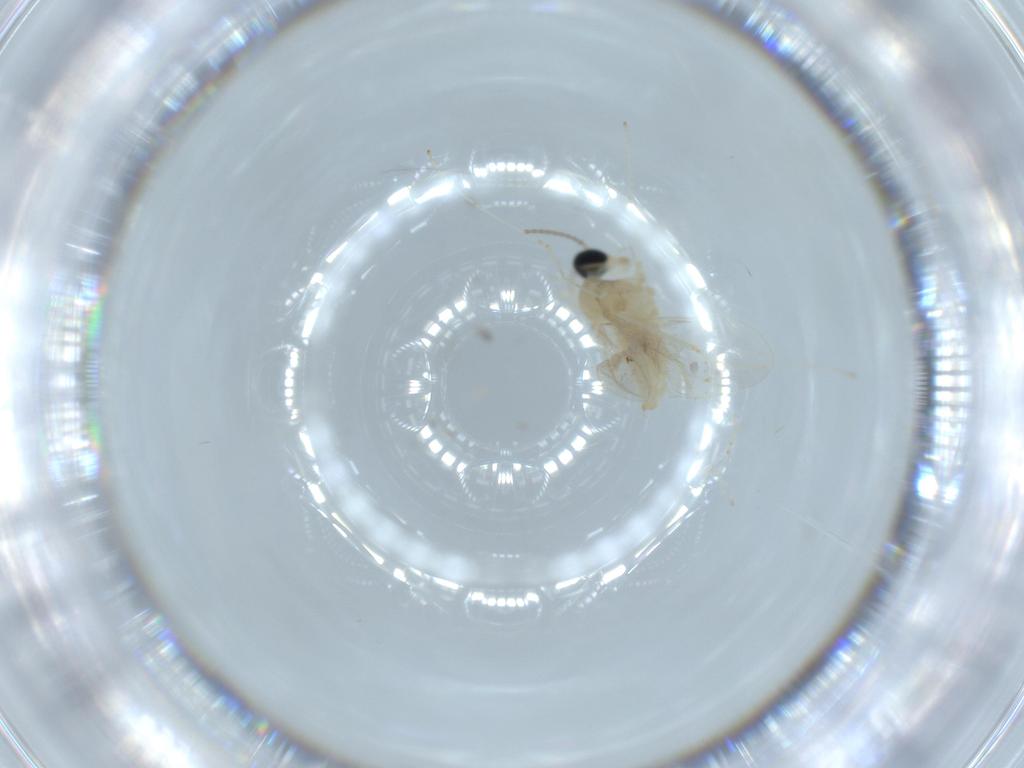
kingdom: Animalia
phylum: Arthropoda
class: Insecta
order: Diptera
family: Cecidomyiidae
